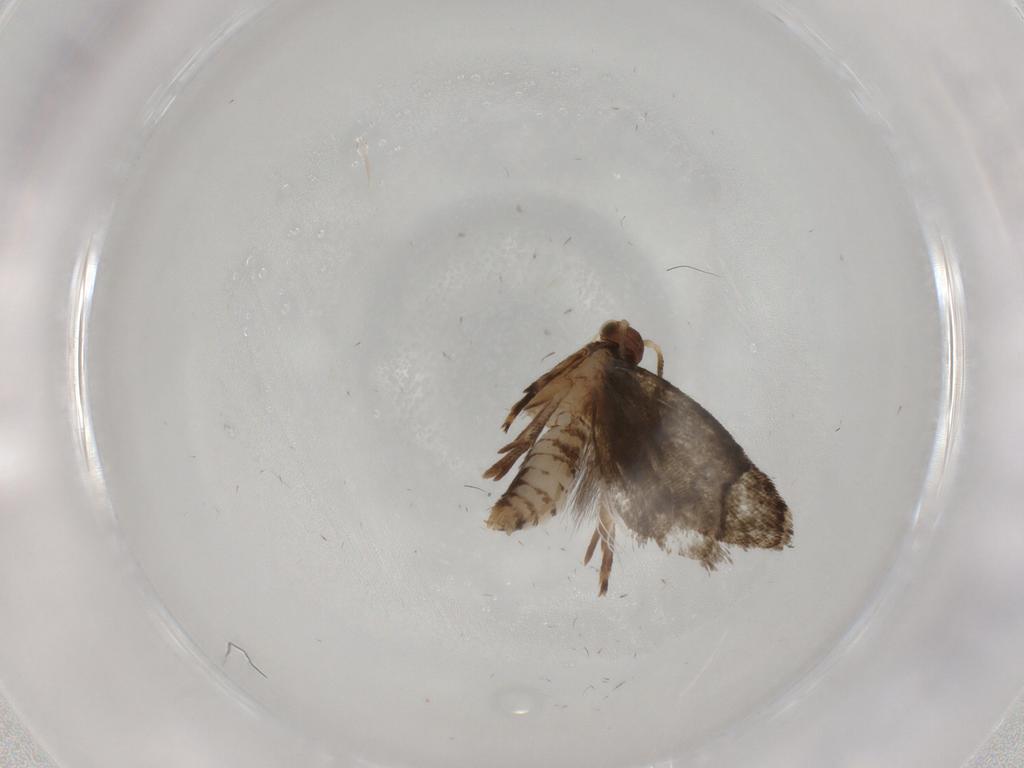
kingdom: Animalia
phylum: Arthropoda
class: Insecta
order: Lepidoptera
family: Tineidae
